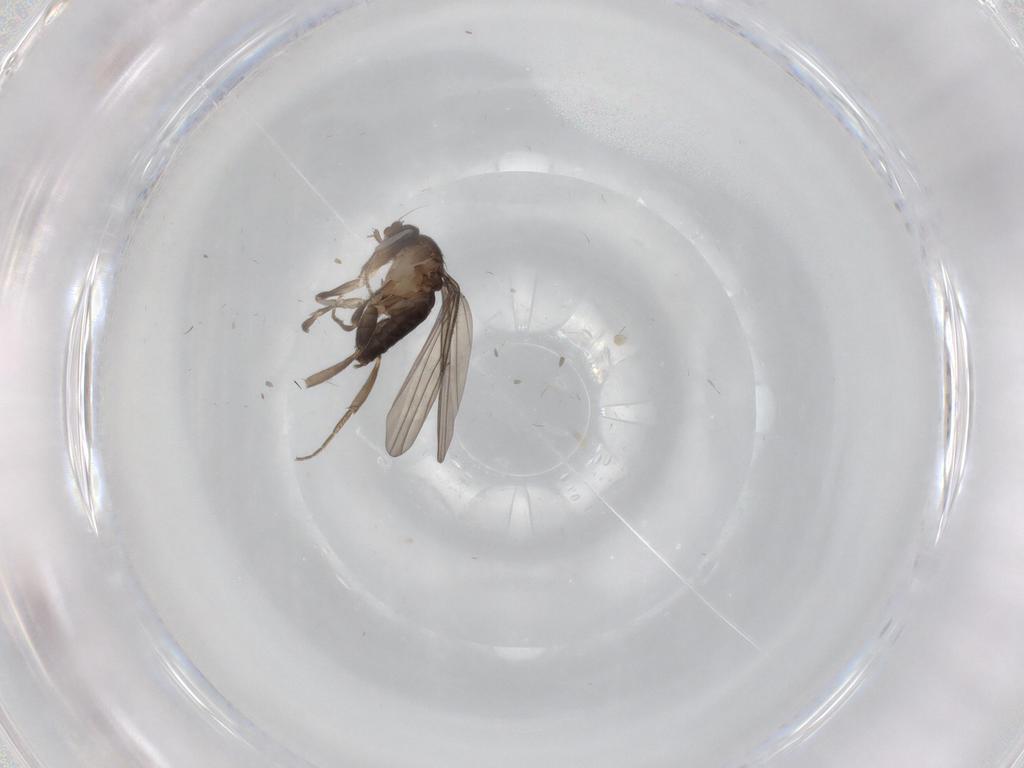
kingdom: Animalia
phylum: Arthropoda
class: Insecta
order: Diptera
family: Phoridae
